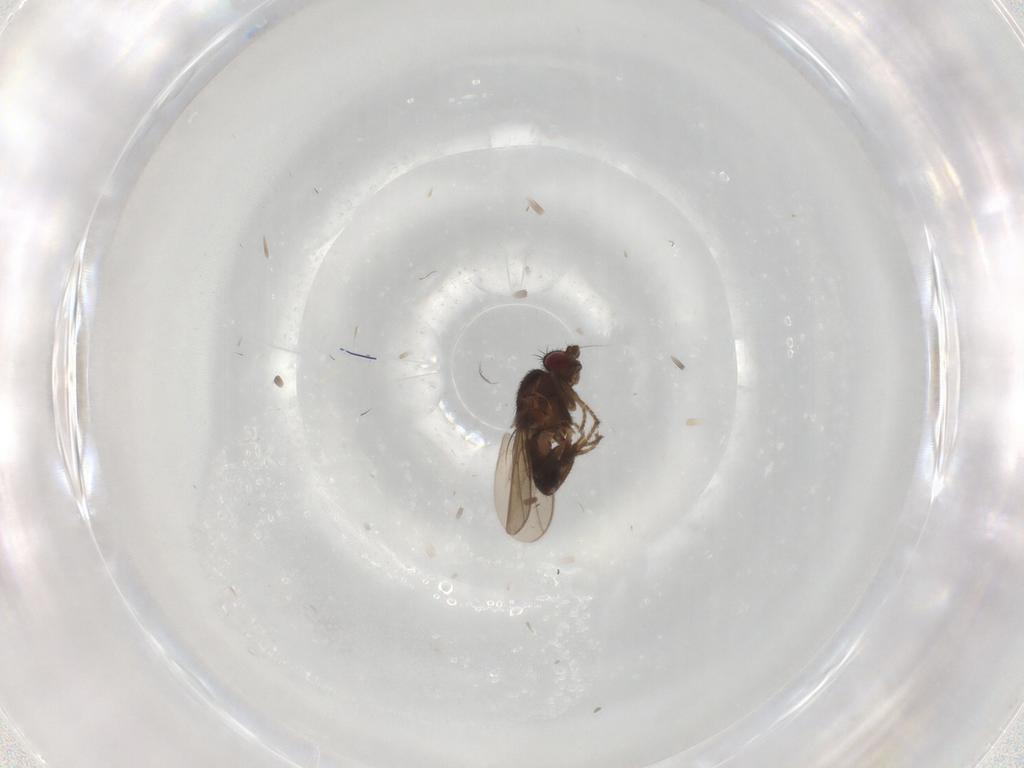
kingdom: Animalia
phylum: Arthropoda
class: Insecta
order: Diptera
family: Sphaeroceridae
